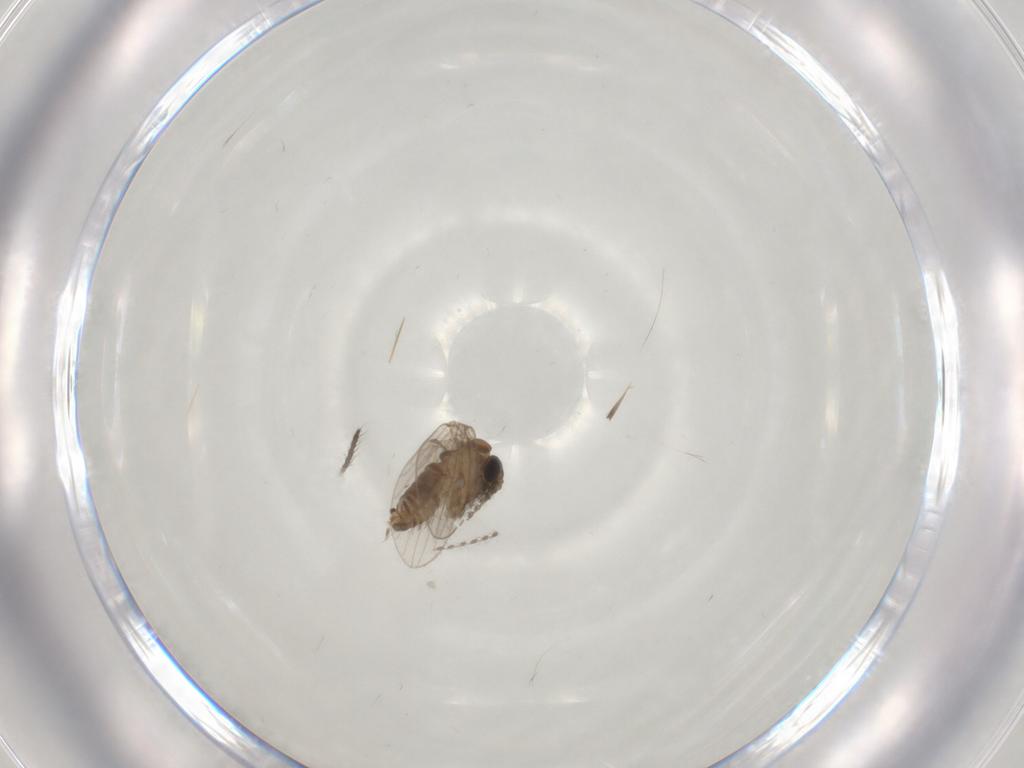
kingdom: Animalia
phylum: Arthropoda
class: Insecta
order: Diptera
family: Psychodidae
